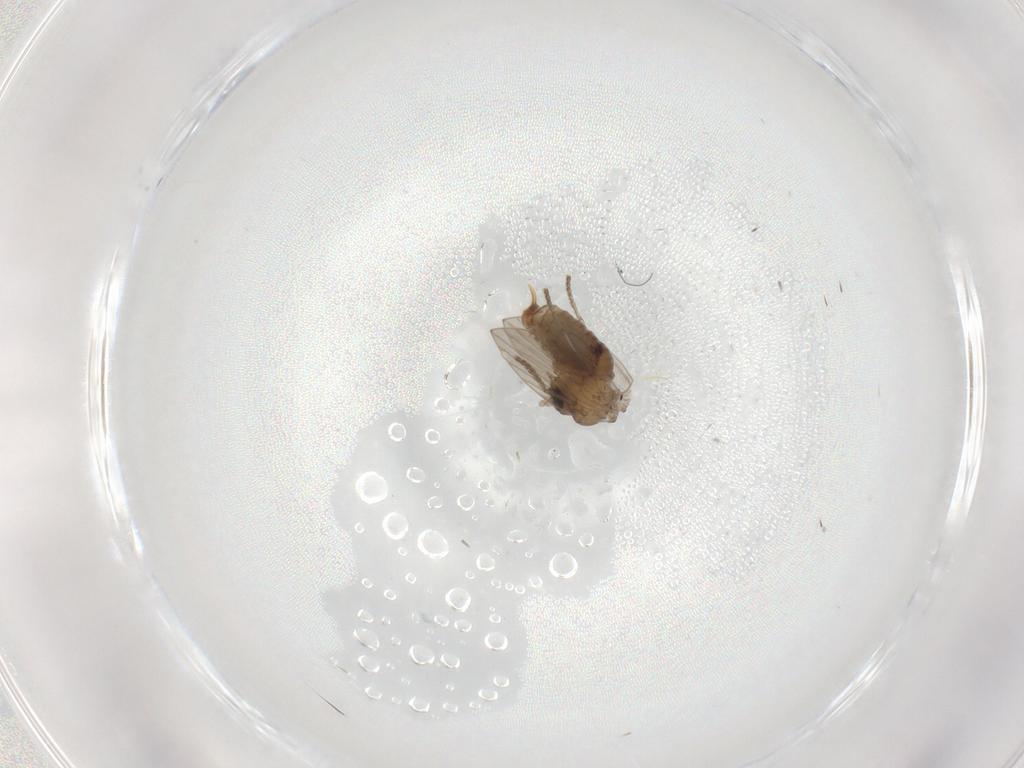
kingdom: Animalia
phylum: Arthropoda
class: Insecta
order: Diptera
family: Psychodidae
